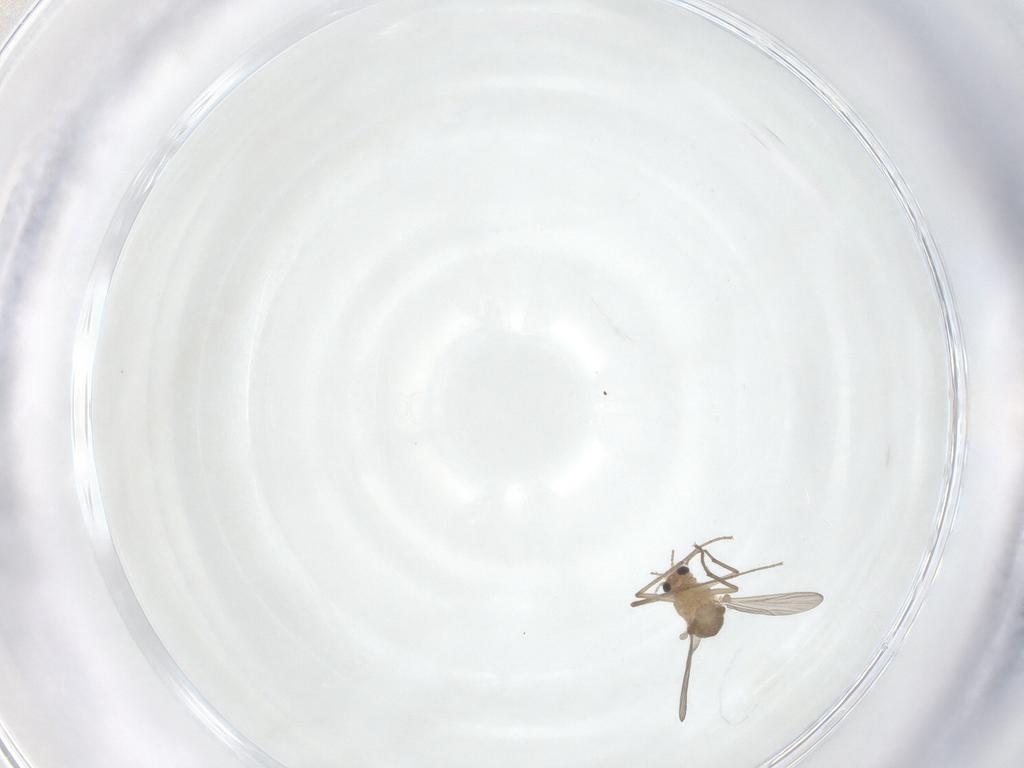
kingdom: Animalia
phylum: Arthropoda
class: Insecta
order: Diptera
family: Chironomidae
